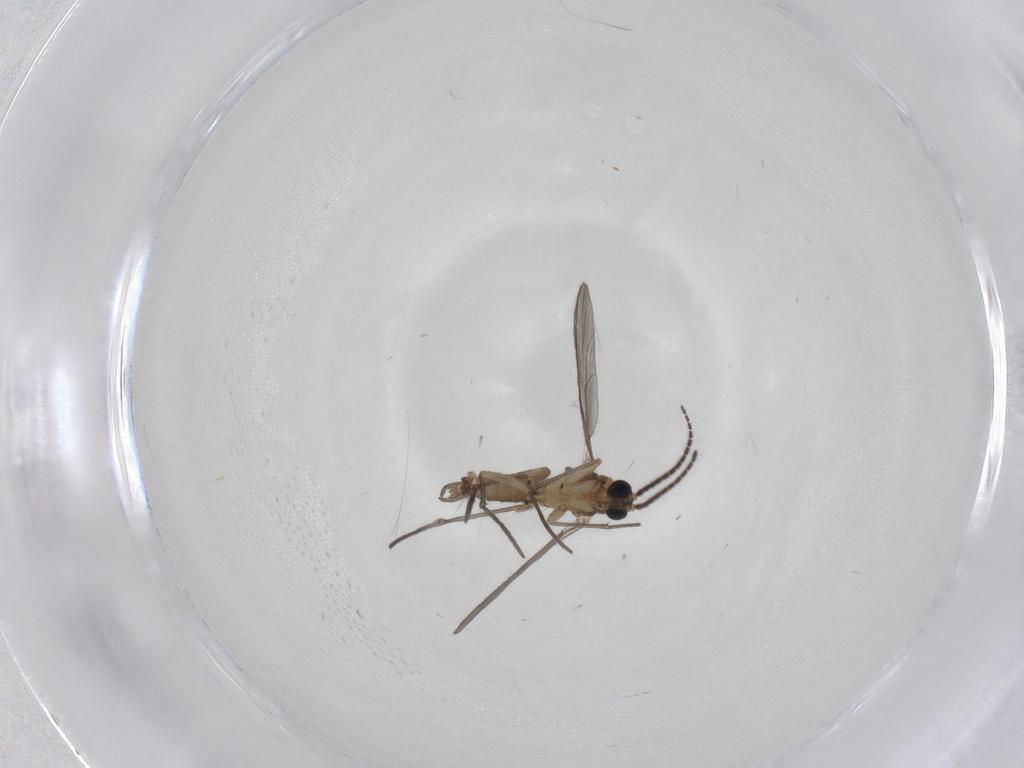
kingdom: Animalia
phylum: Arthropoda
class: Insecta
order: Diptera
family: Sciaridae
